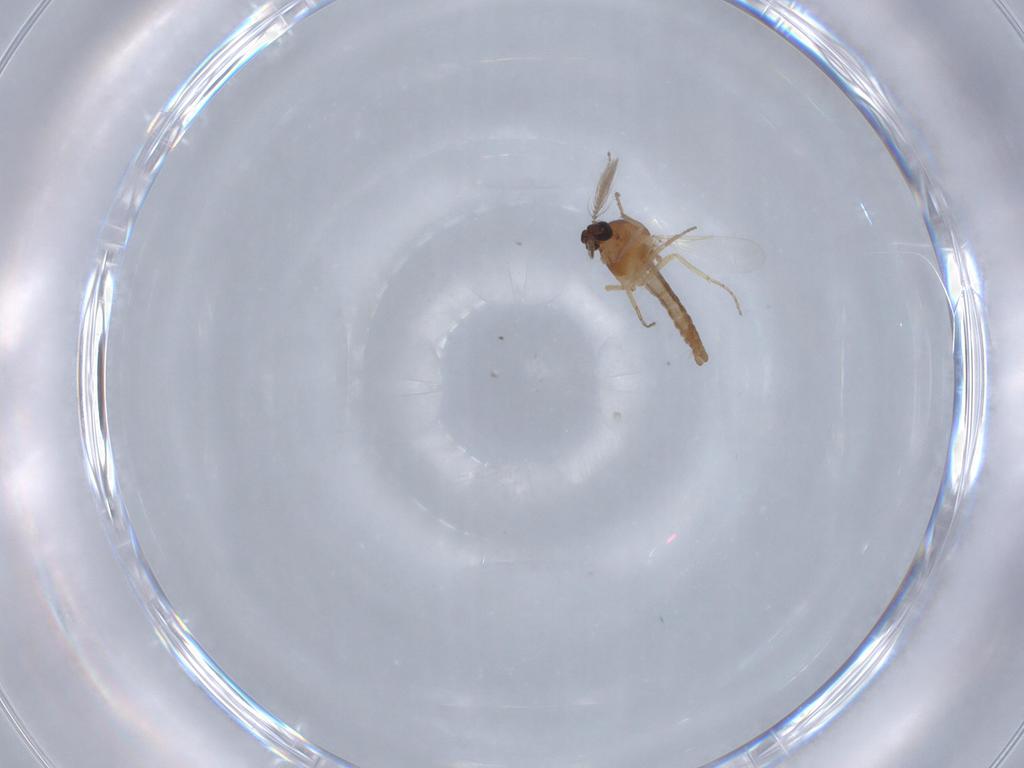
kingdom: Animalia
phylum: Arthropoda
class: Insecta
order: Diptera
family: Ceratopogonidae
